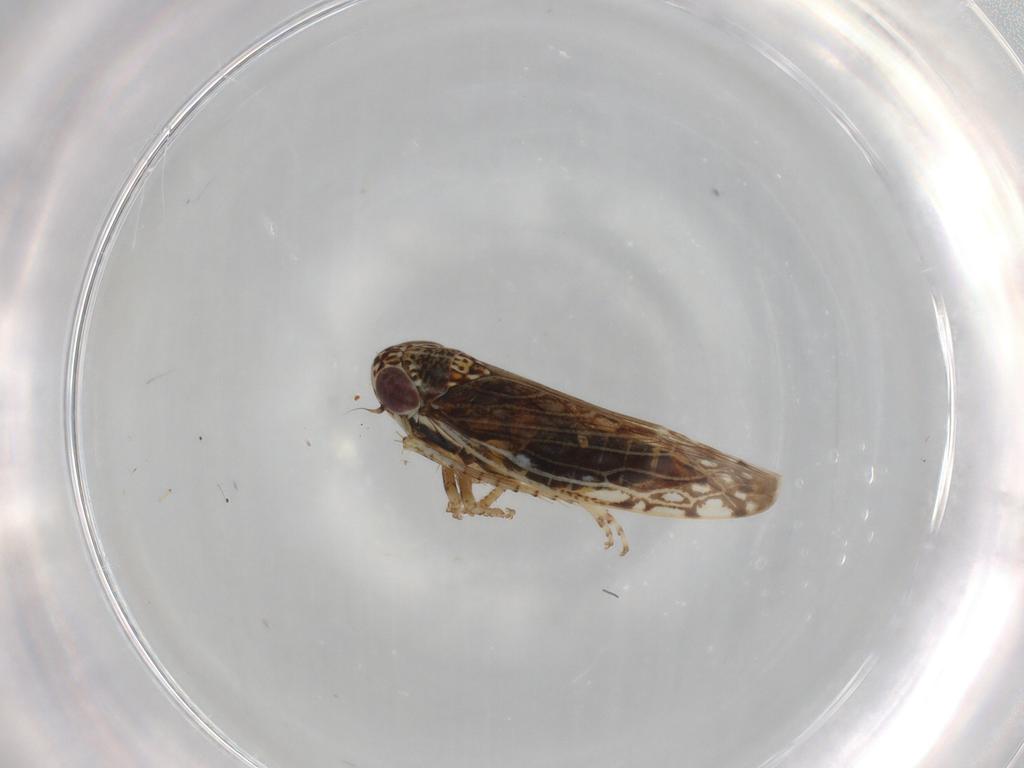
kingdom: Animalia
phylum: Arthropoda
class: Insecta
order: Hemiptera
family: Cicadellidae
